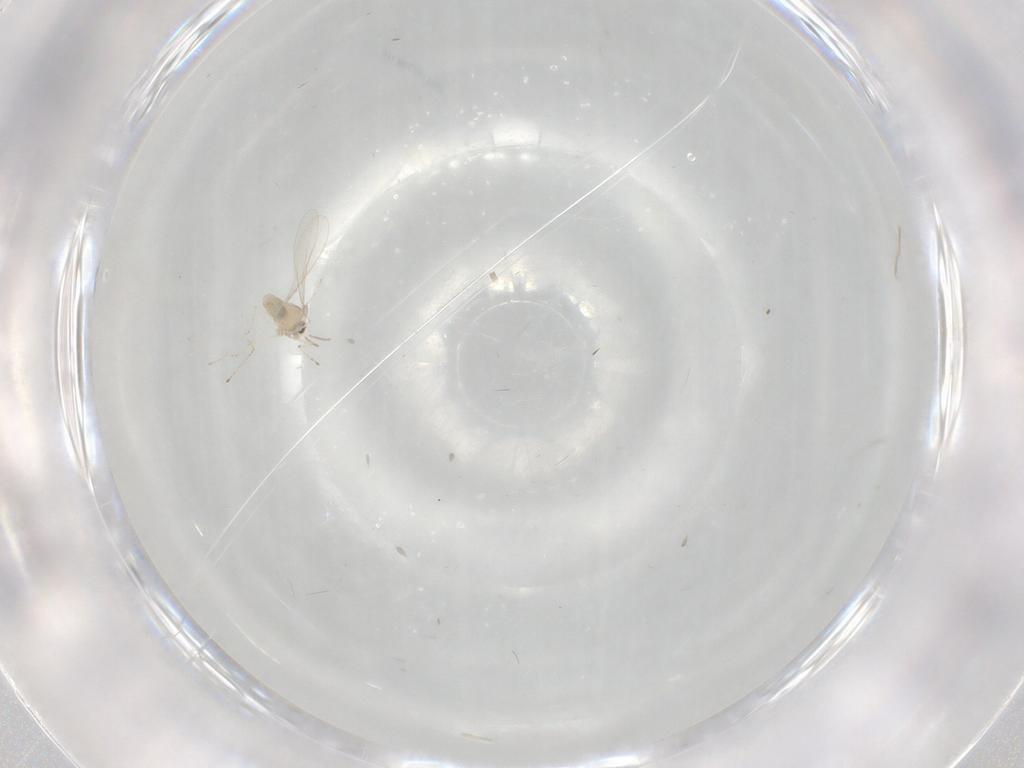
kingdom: Animalia
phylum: Arthropoda
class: Insecta
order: Diptera
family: Cecidomyiidae
